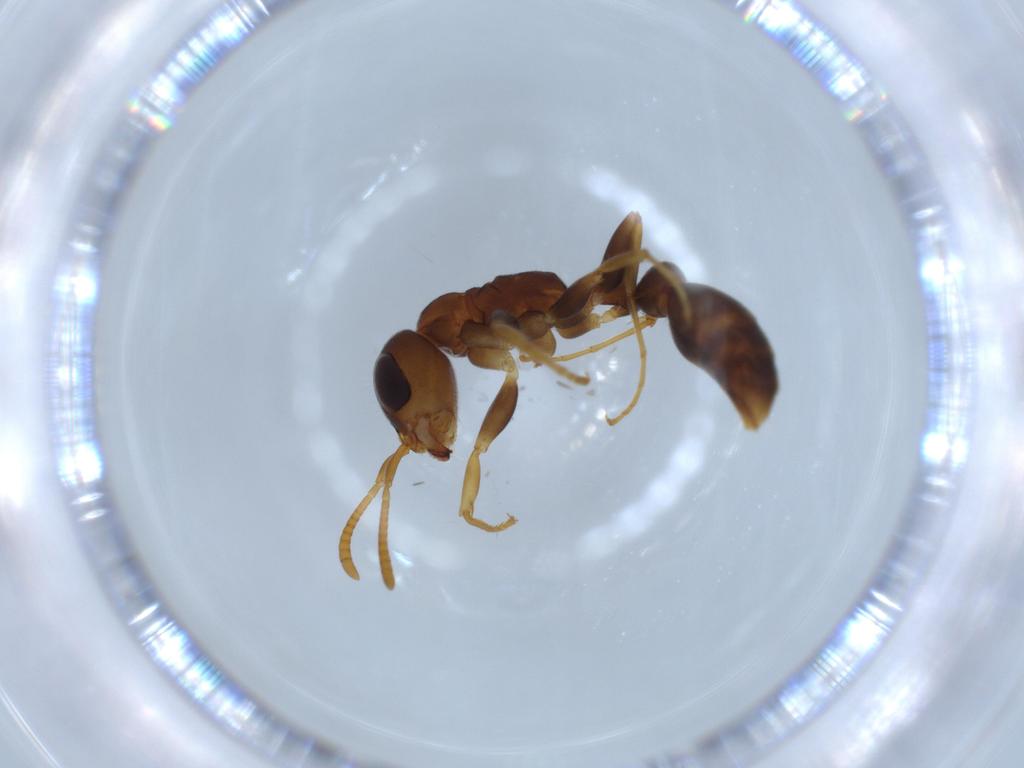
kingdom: Animalia
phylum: Arthropoda
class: Insecta
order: Hymenoptera
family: Formicidae
